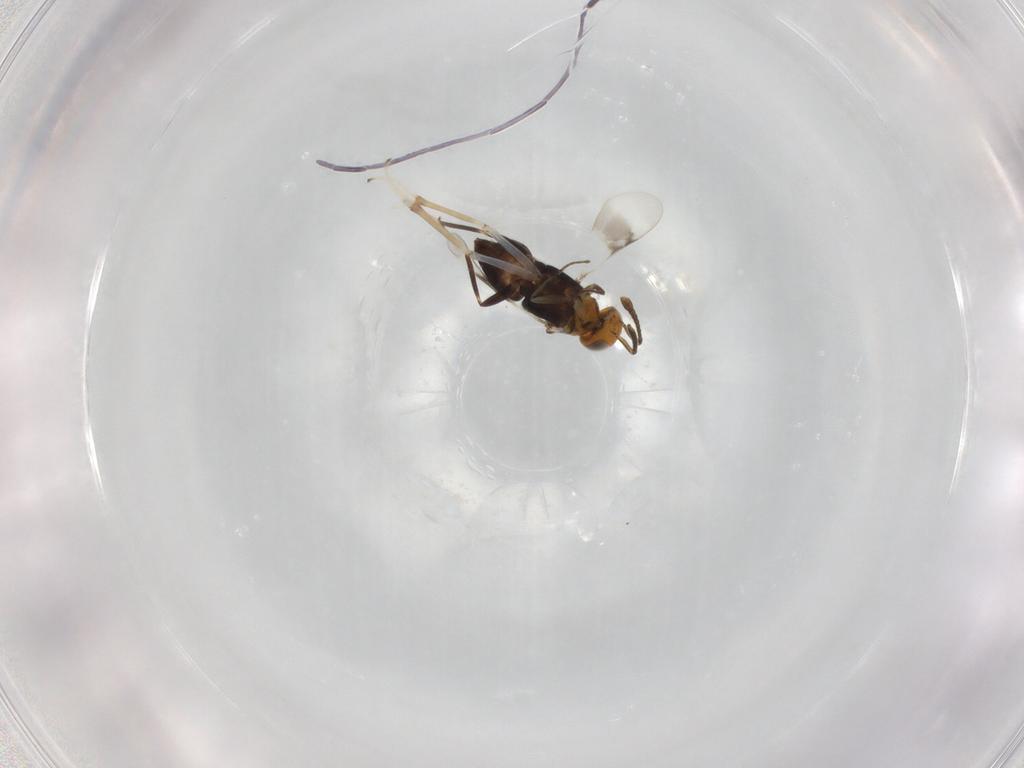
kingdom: Animalia
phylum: Arthropoda
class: Insecta
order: Hymenoptera
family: Encyrtidae
